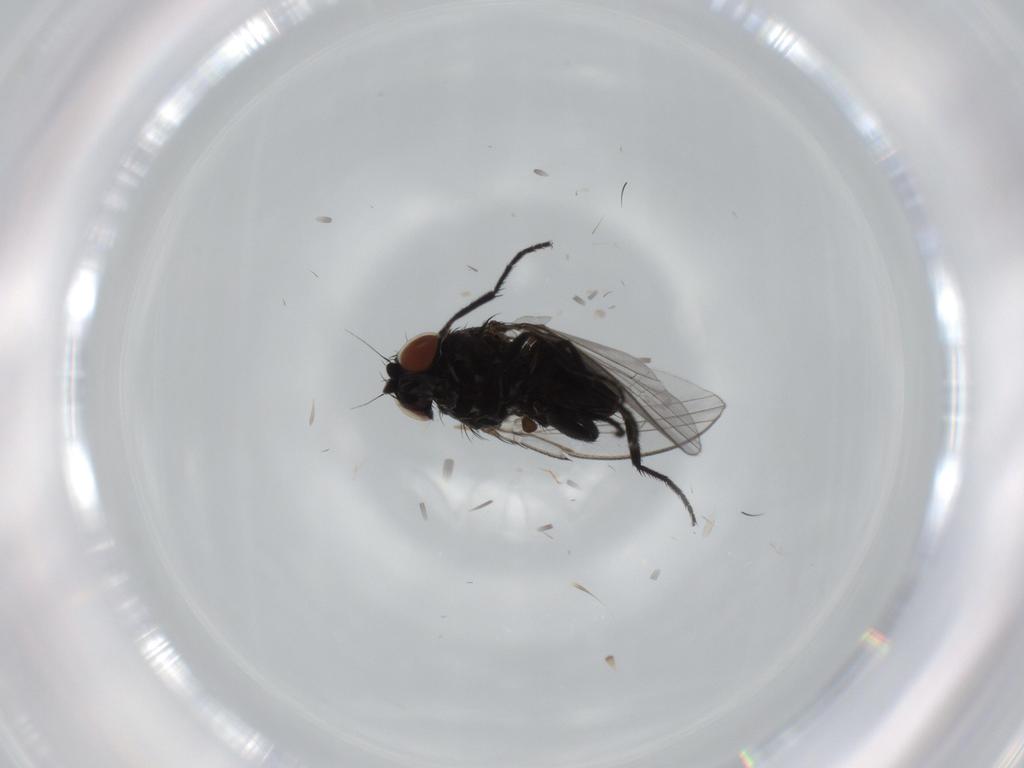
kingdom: Animalia
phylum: Arthropoda
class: Insecta
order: Diptera
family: Milichiidae
